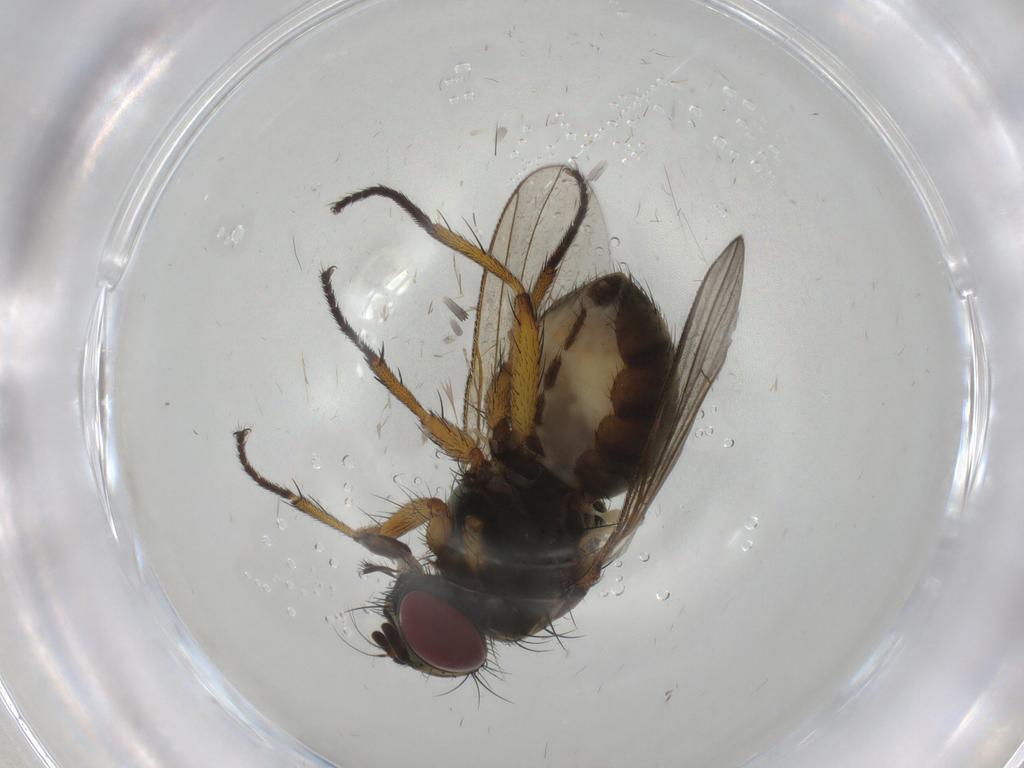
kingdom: Animalia
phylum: Arthropoda
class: Insecta
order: Diptera
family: Muscidae
